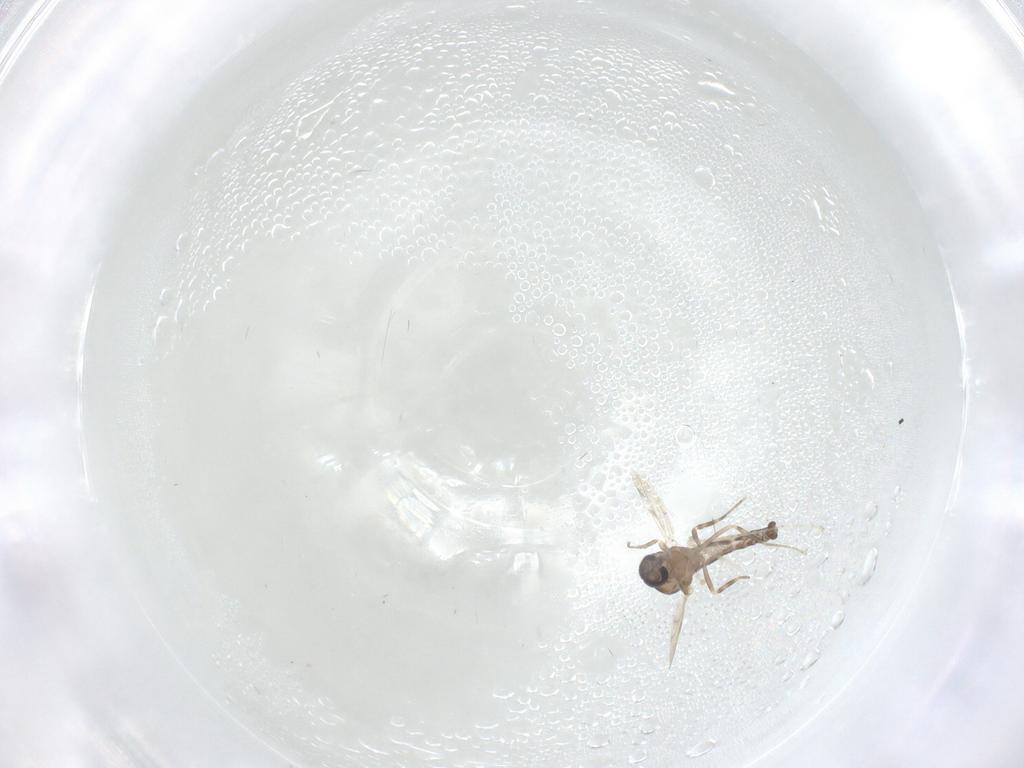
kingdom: Animalia
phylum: Arthropoda
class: Insecta
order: Diptera
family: Ceratopogonidae
